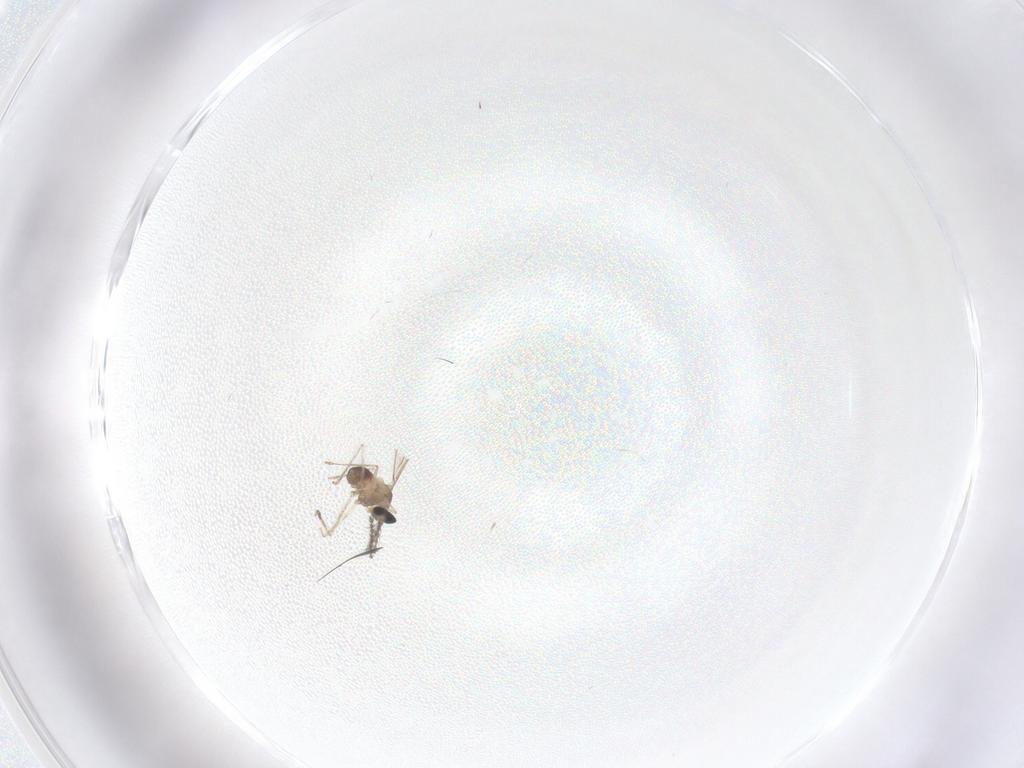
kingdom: Animalia
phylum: Arthropoda
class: Insecta
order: Diptera
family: Cecidomyiidae
